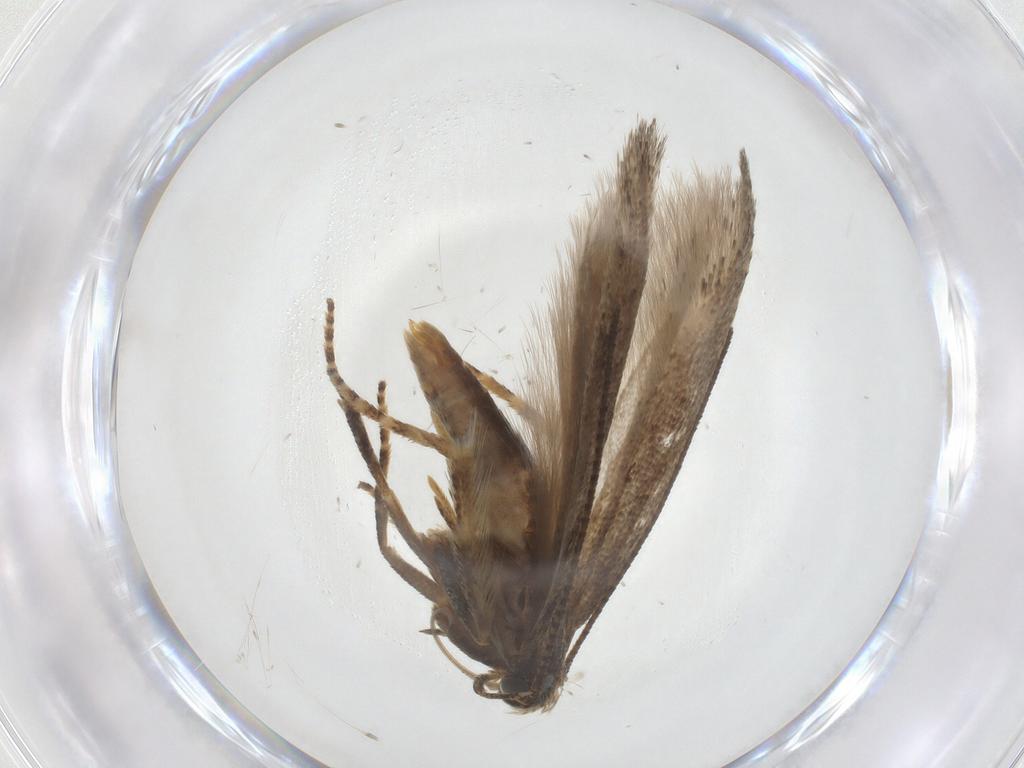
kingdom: Animalia
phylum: Arthropoda
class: Insecta
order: Lepidoptera
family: Gelechiidae
